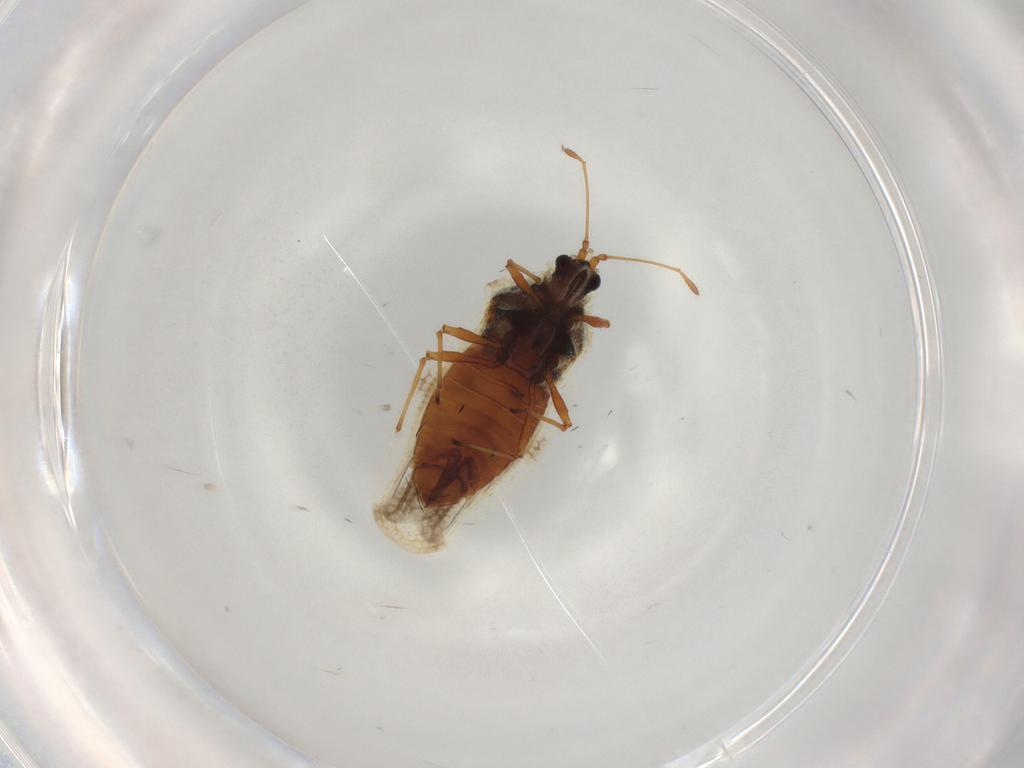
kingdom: Animalia
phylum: Arthropoda
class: Insecta
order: Hemiptera
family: Tingidae
